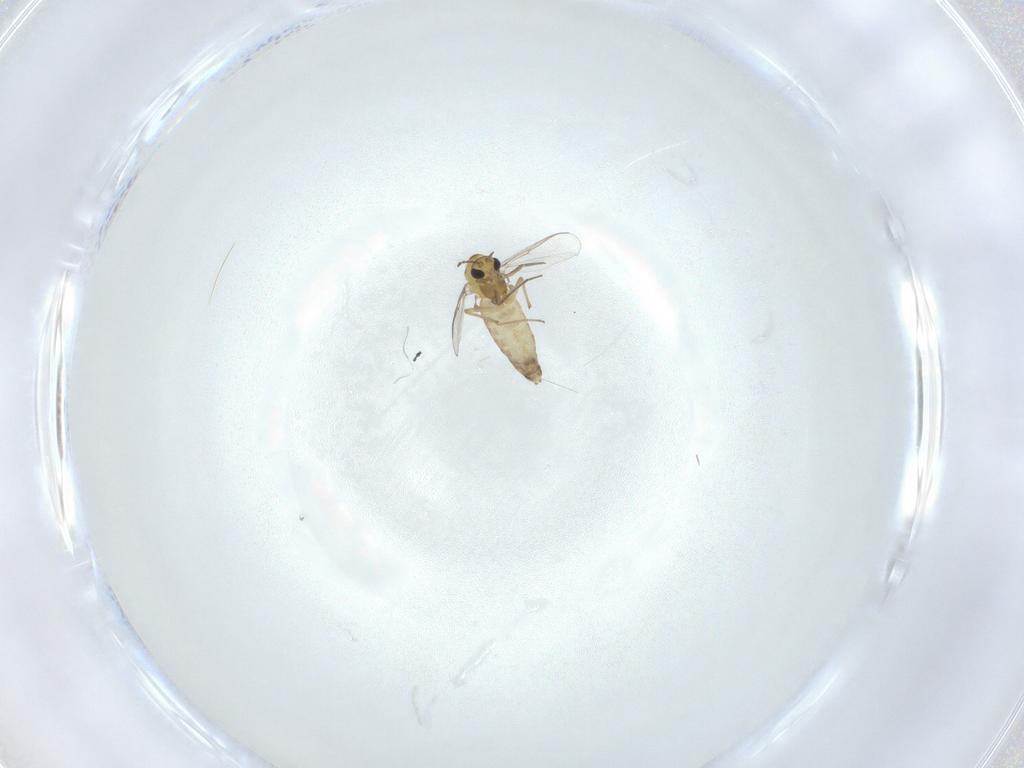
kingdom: Animalia
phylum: Arthropoda
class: Insecta
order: Diptera
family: Chironomidae
